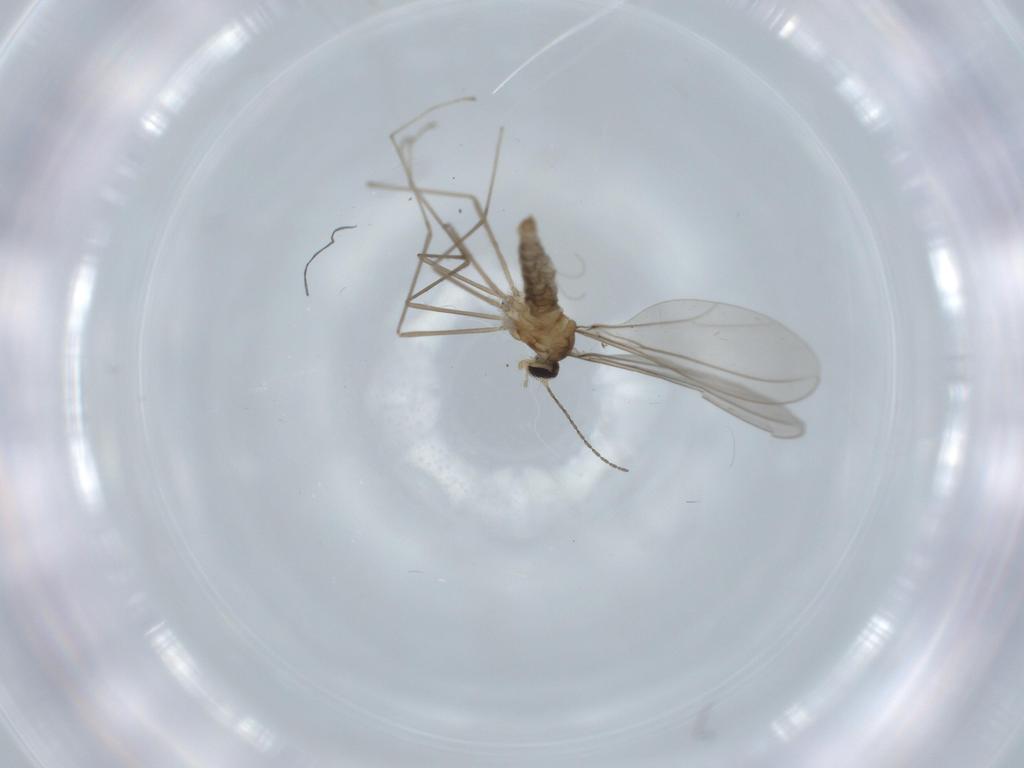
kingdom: Animalia
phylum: Arthropoda
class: Insecta
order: Diptera
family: Cecidomyiidae
